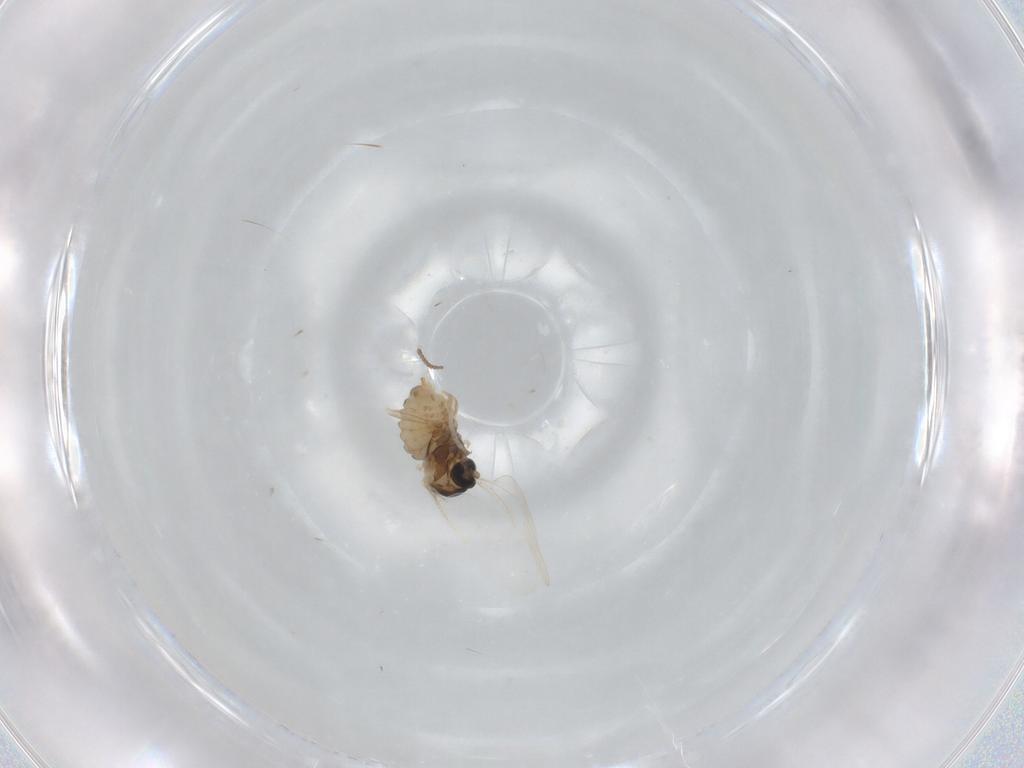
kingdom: Animalia
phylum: Arthropoda
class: Insecta
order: Diptera
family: Cecidomyiidae
